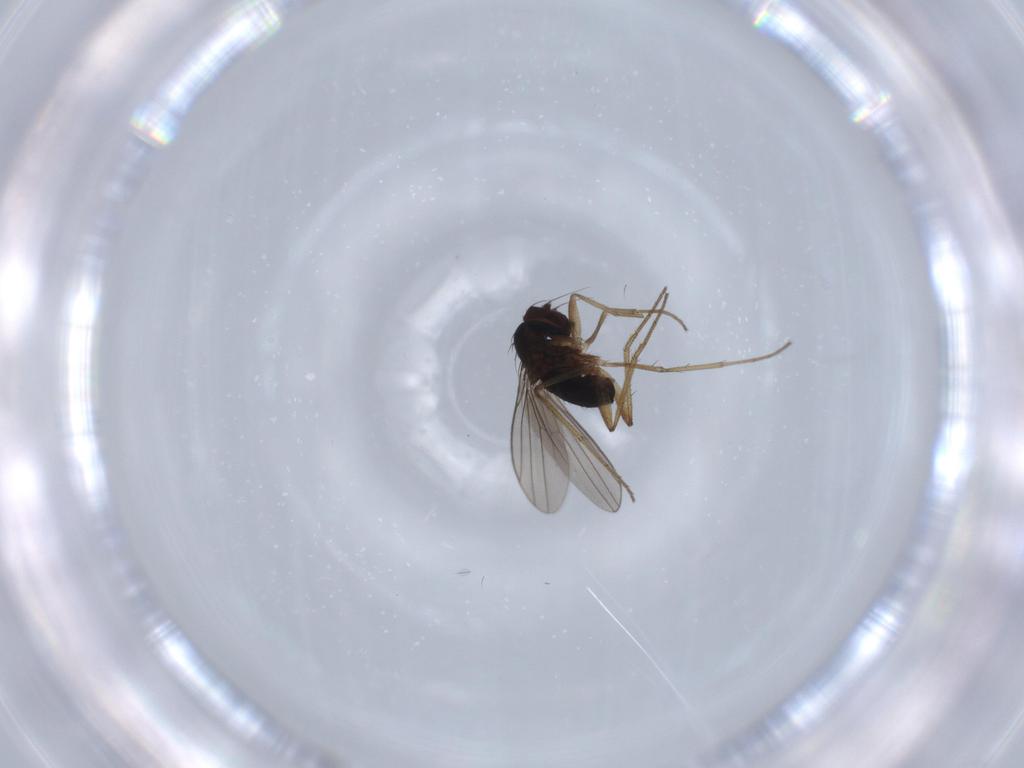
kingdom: Animalia
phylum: Arthropoda
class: Insecta
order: Diptera
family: Dolichopodidae
